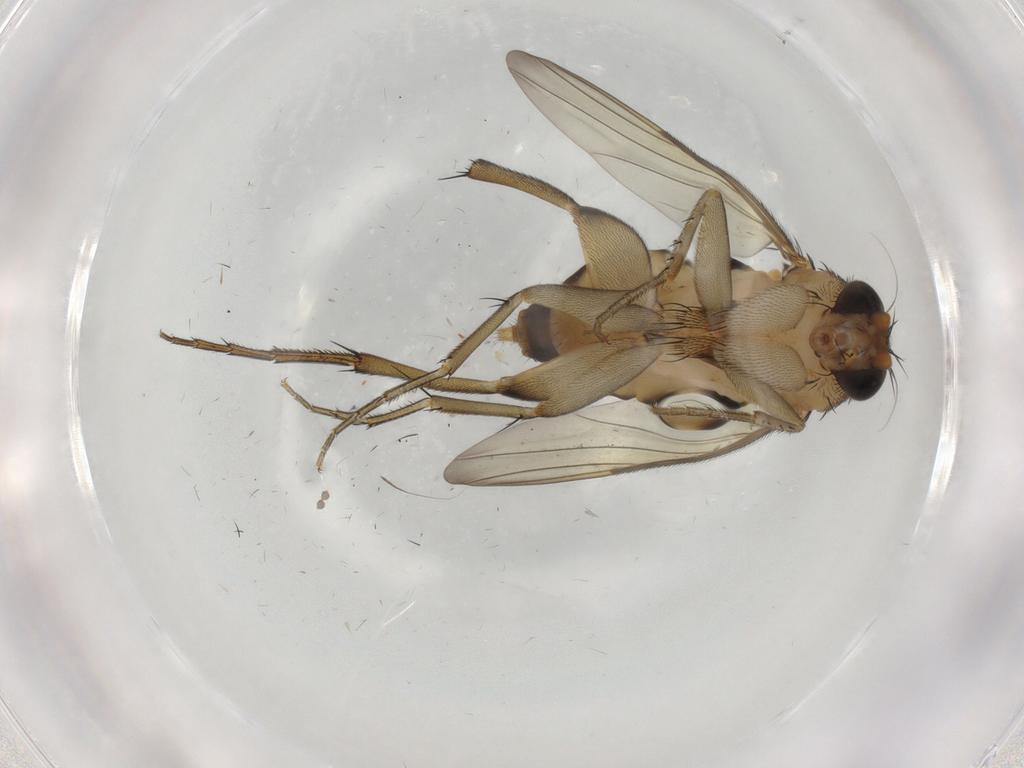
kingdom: Animalia
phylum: Arthropoda
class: Insecta
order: Diptera
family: Psychodidae
